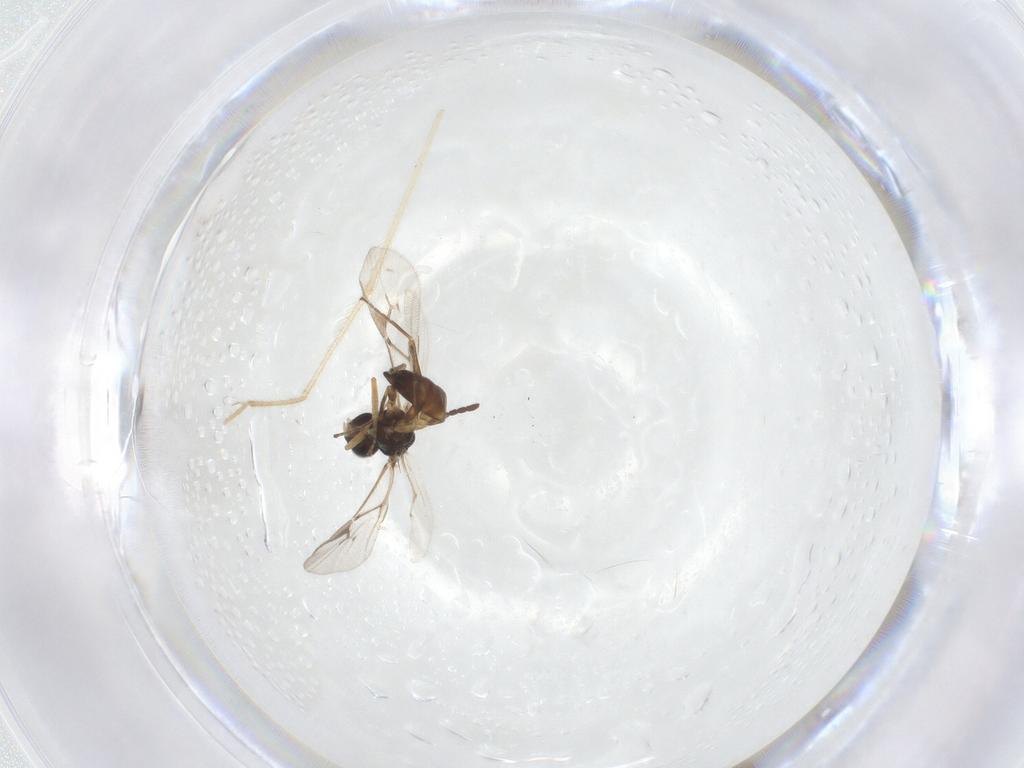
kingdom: Animalia
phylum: Arthropoda
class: Insecta
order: Hymenoptera
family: Braconidae
